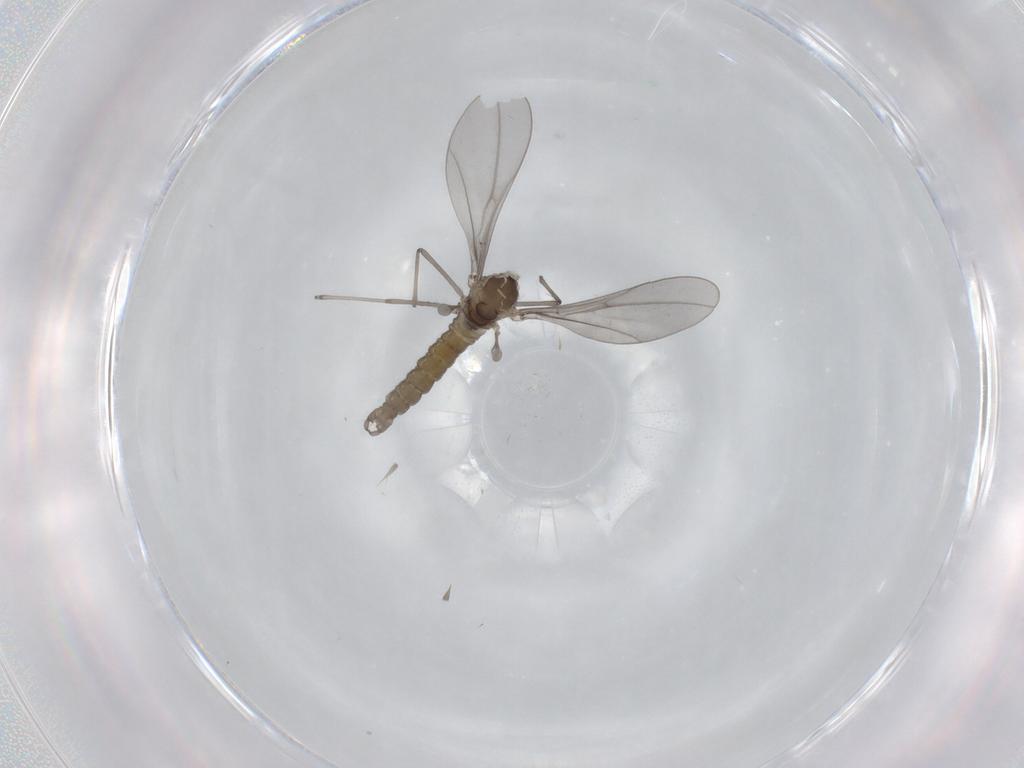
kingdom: Animalia
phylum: Arthropoda
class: Insecta
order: Diptera
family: Cecidomyiidae
